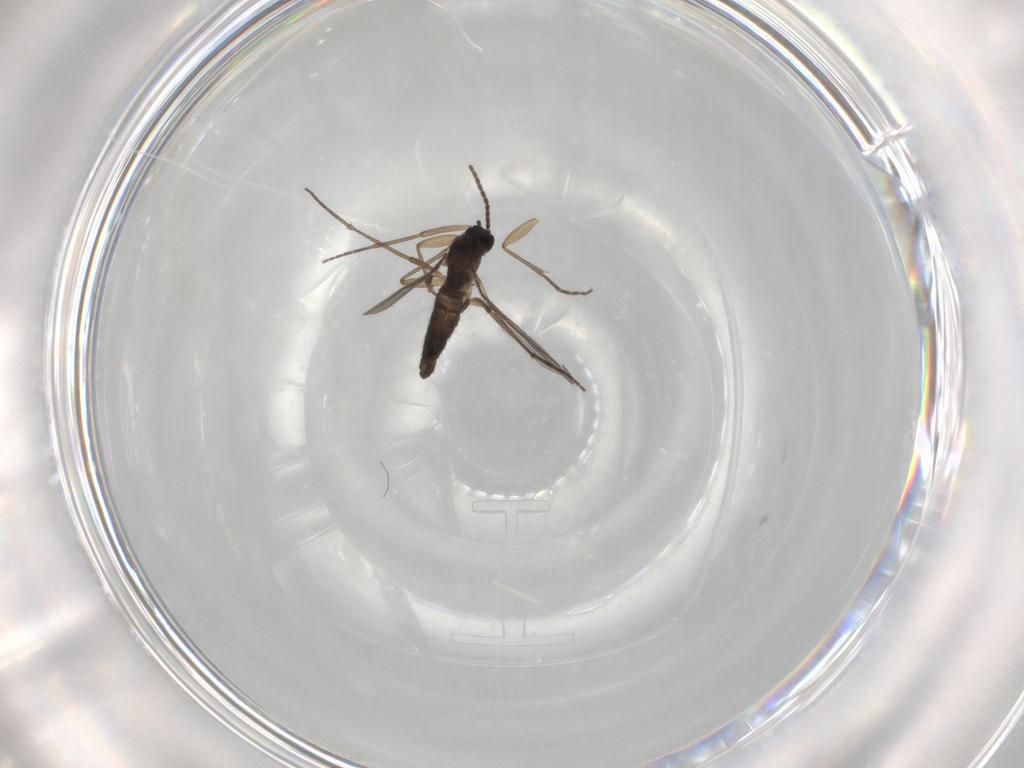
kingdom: Animalia
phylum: Arthropoda
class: Insecta
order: Diptera
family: Sciaridae
